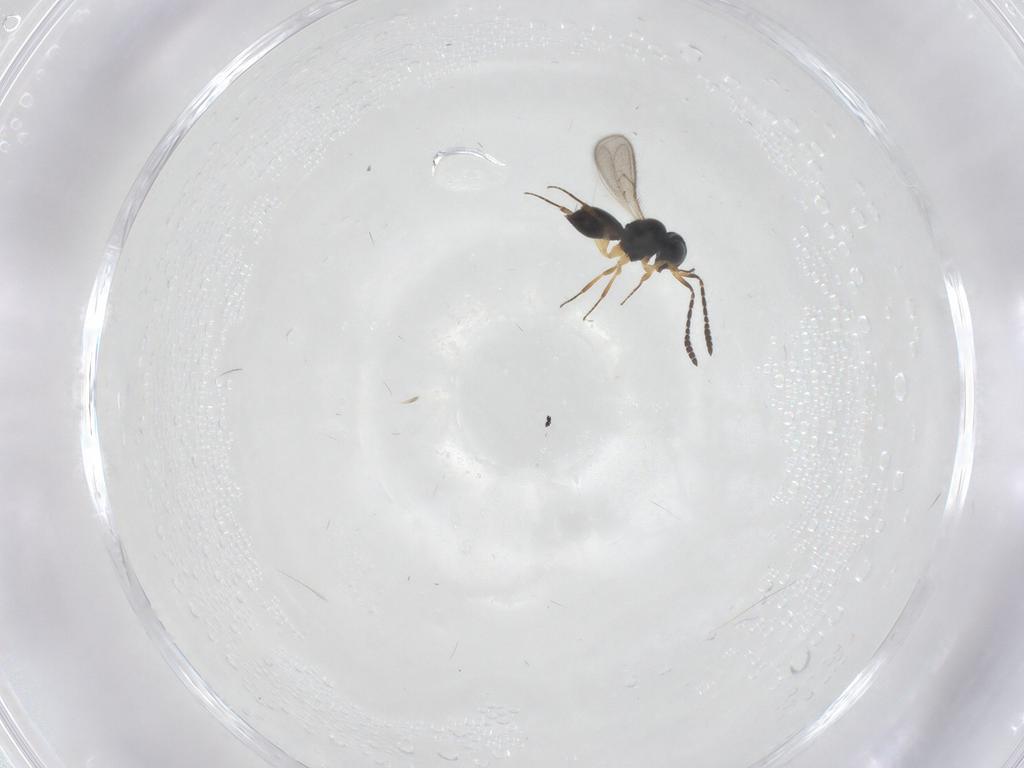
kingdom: Animalia
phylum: Arthropoda
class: Insecta
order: Hymenoptera
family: Scelionidae
